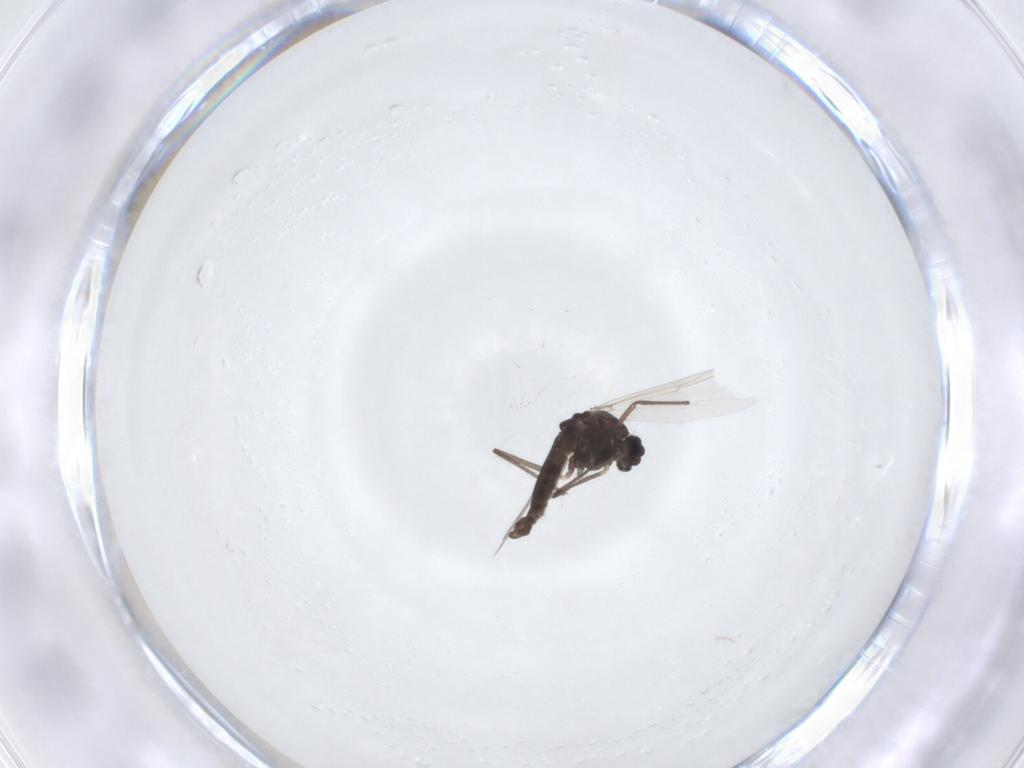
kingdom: Animalia
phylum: Arthropoda
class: Insecta
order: Diptera
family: Chironomidae
